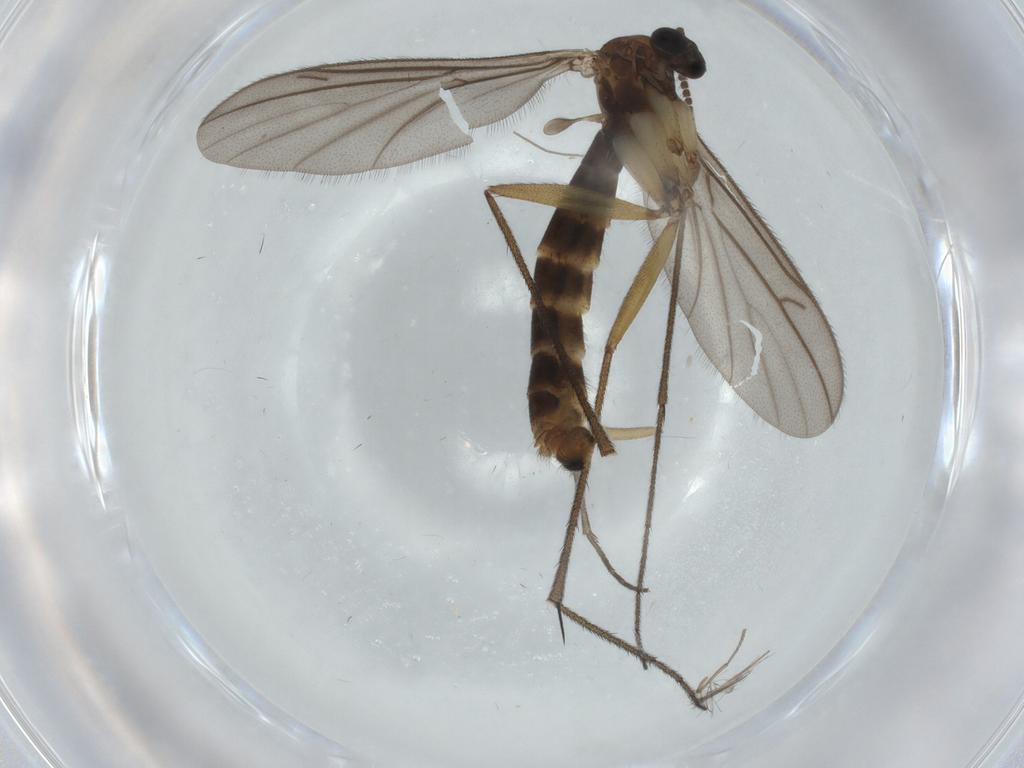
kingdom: Animalia
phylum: Arthropoda
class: Insecta
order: Diptera
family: Ditomyiidae
